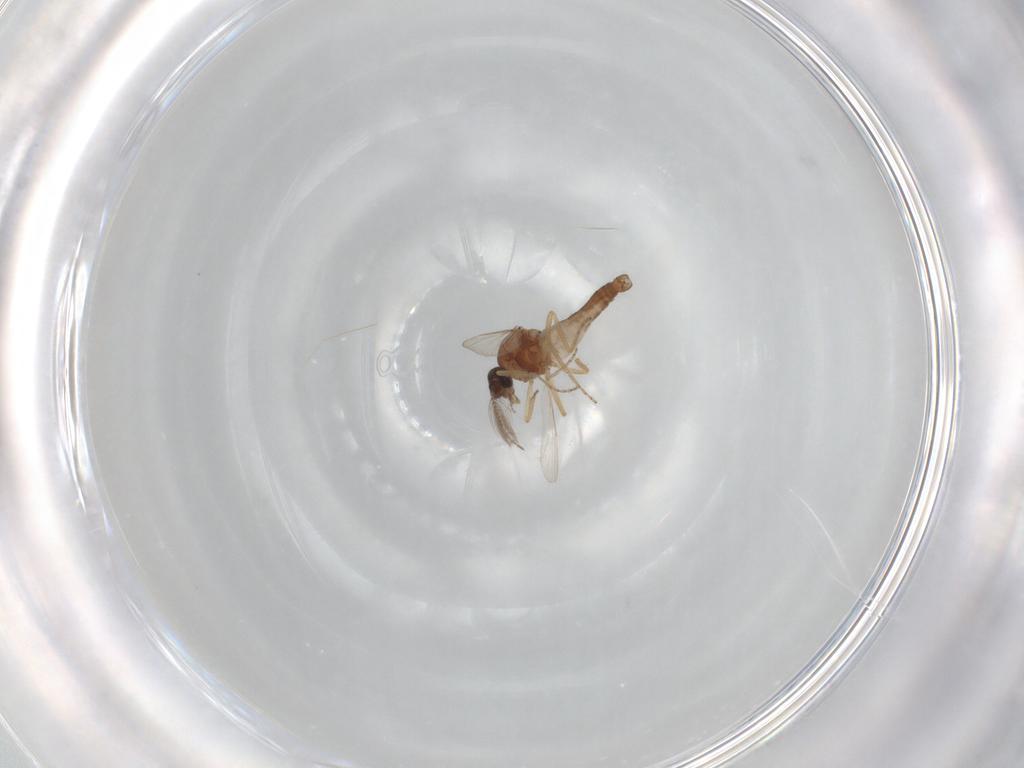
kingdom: Animalia
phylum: Arthropoda
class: Insecta
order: Diptera
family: Ceratopogonidae
